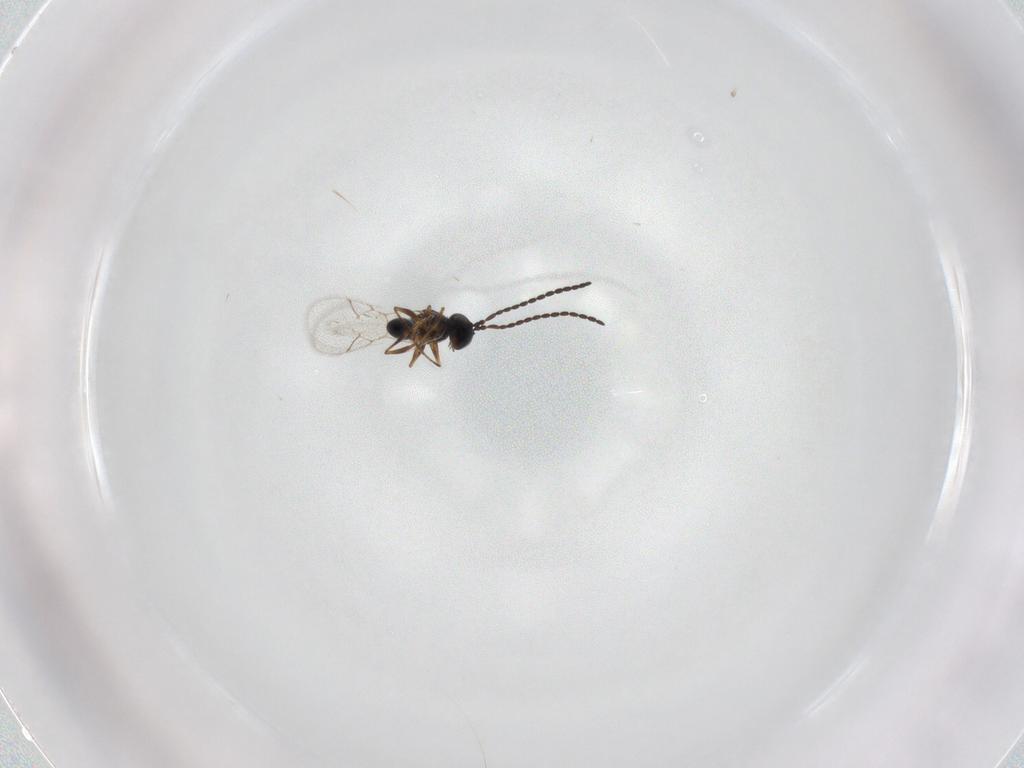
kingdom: Animalia
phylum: Arthropoda
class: Insecta
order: Hymenoptera
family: Figitidae
